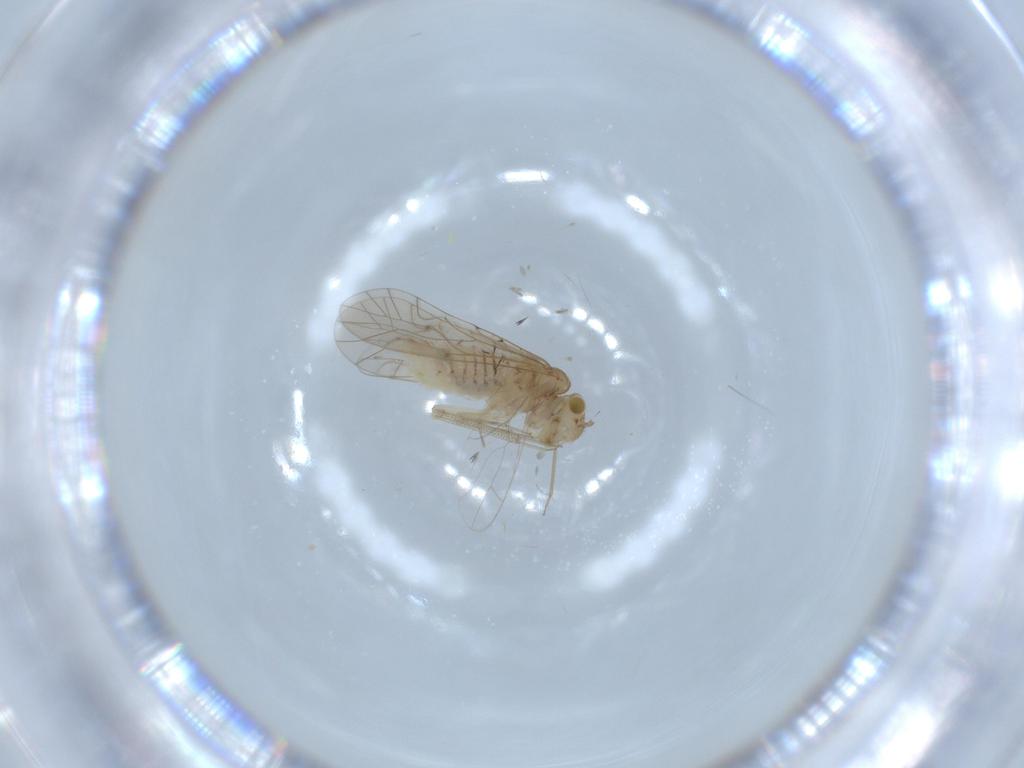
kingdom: Animalia
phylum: Arthropoda
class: Insecta
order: Psocodea
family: Lachesillidae
